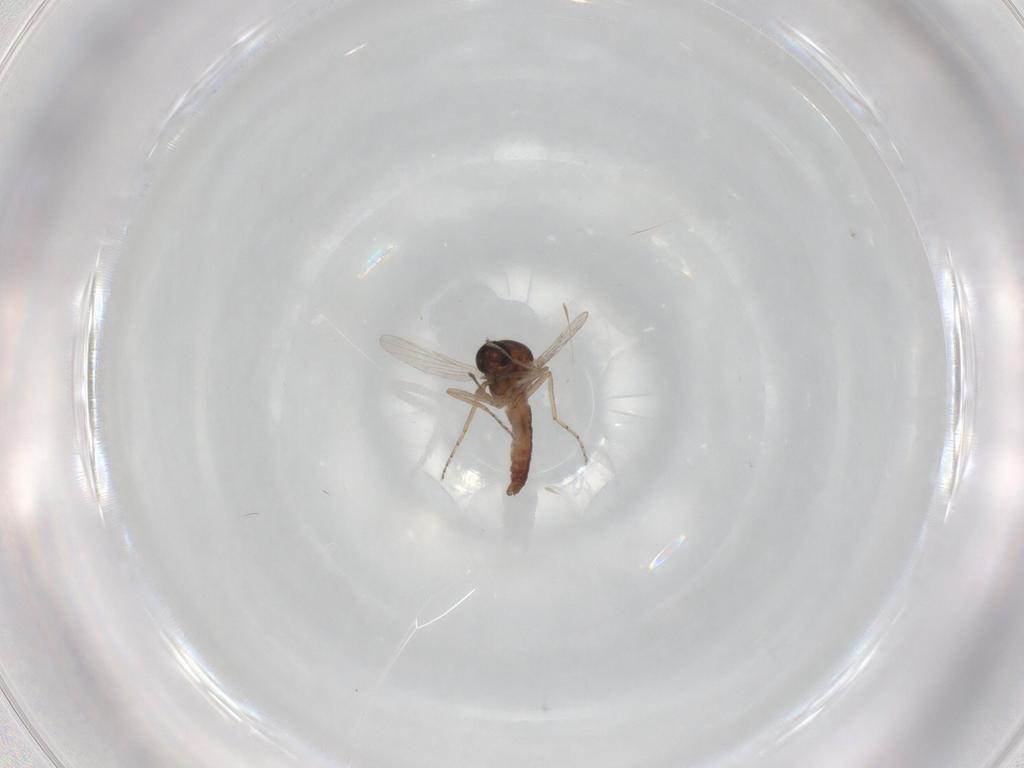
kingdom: Animalia
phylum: Arthropoda
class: Insecta
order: Diptera
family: Ceratopogonidae
